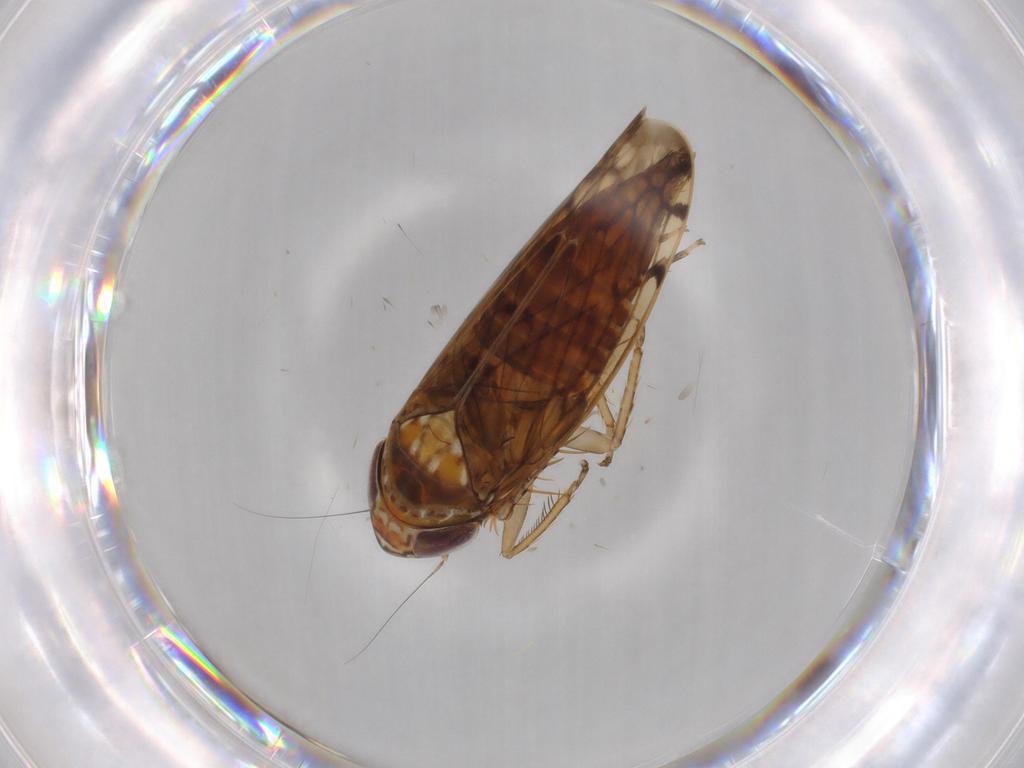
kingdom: Animalia
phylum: Arthropoda
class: Insecta
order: Hemiptera
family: Cicadellidae
